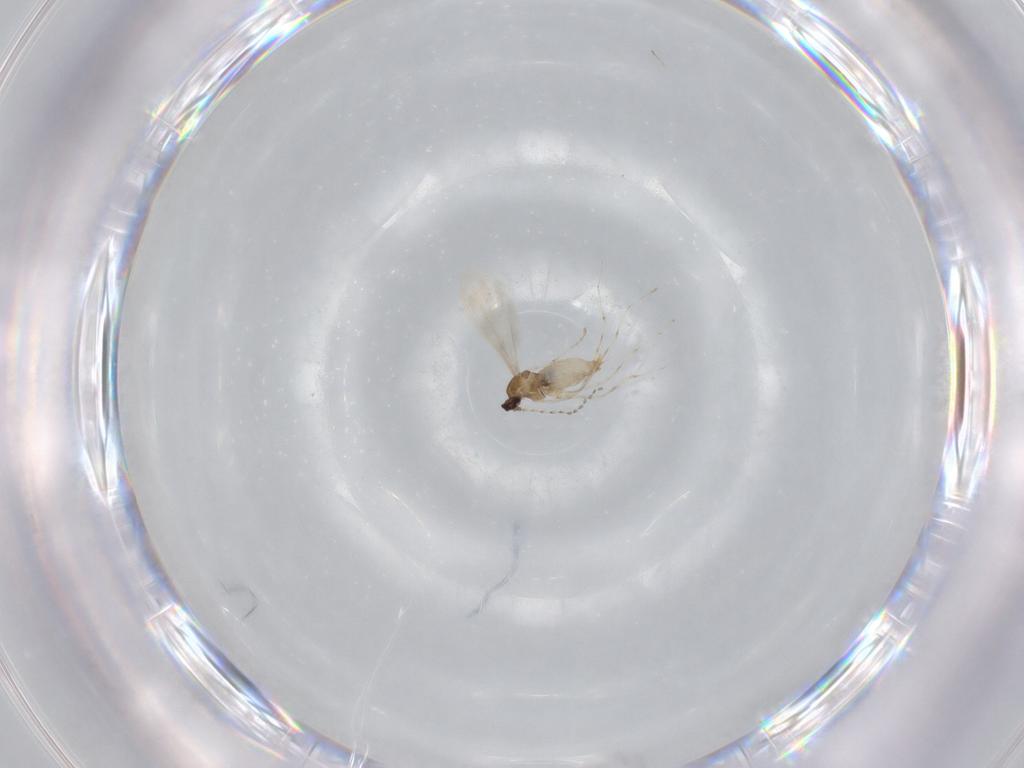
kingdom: Animalia
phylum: Arthropoda
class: Insecta
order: Diptera
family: Cecidomyiidae
